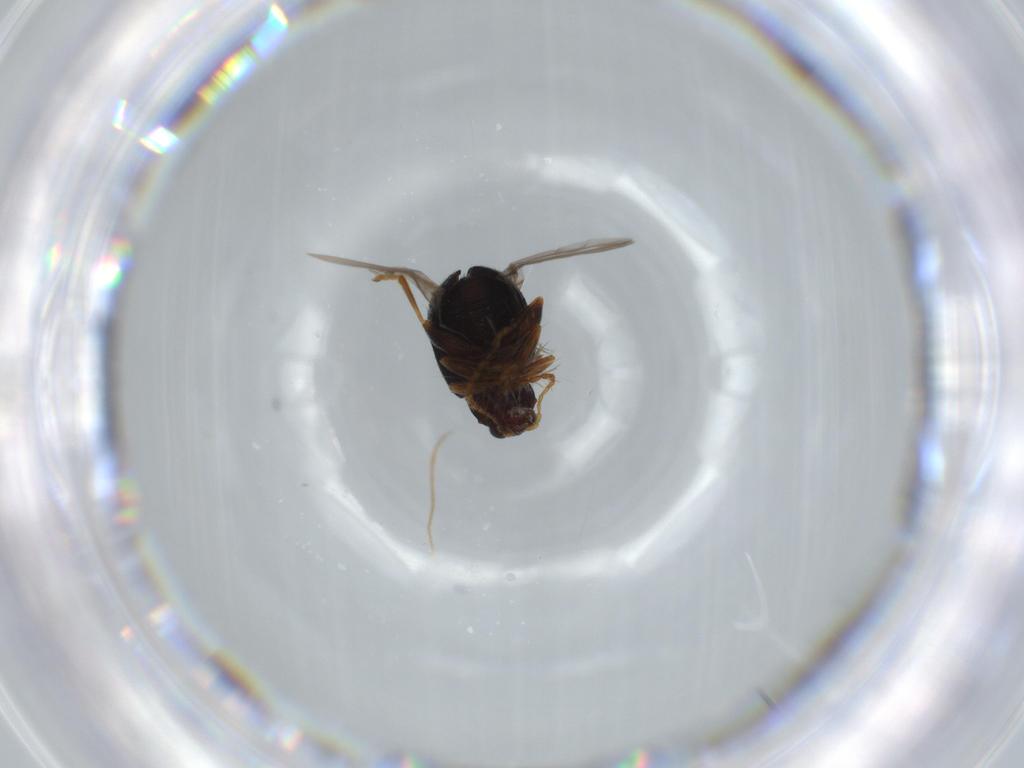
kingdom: Animalia
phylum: Arthropoda
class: Insecta
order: Coleoptera
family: Chrysomelidae
